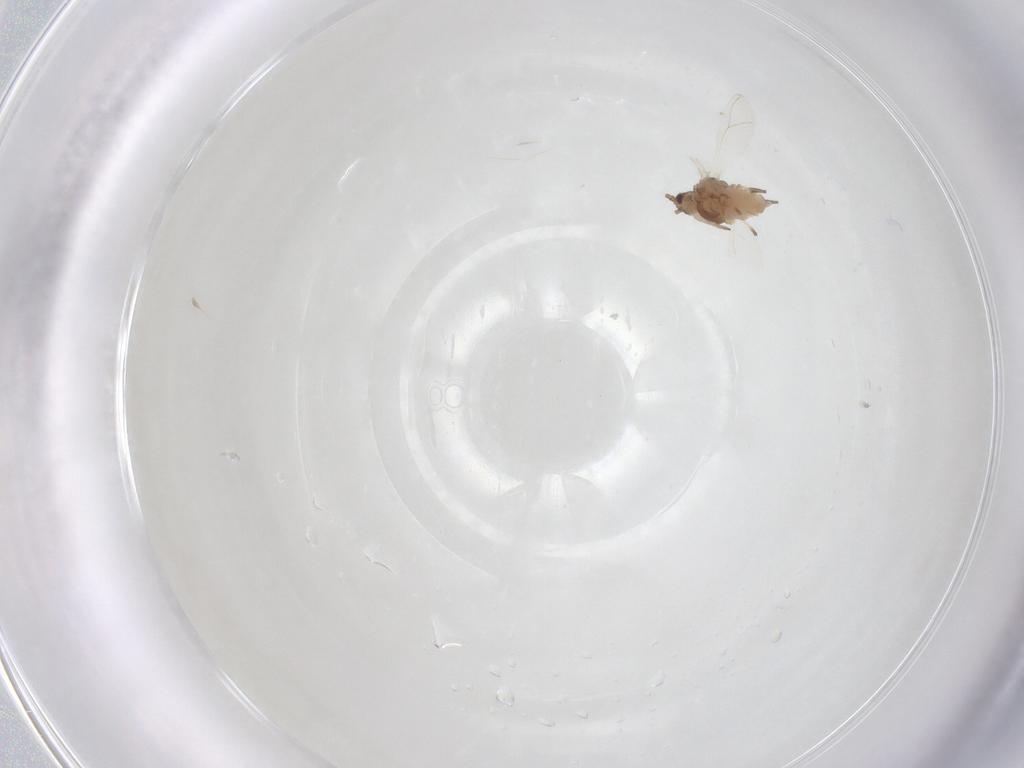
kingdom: Animalia
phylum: Arthropoda
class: Insecta
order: Hemiptera
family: Aphididae
